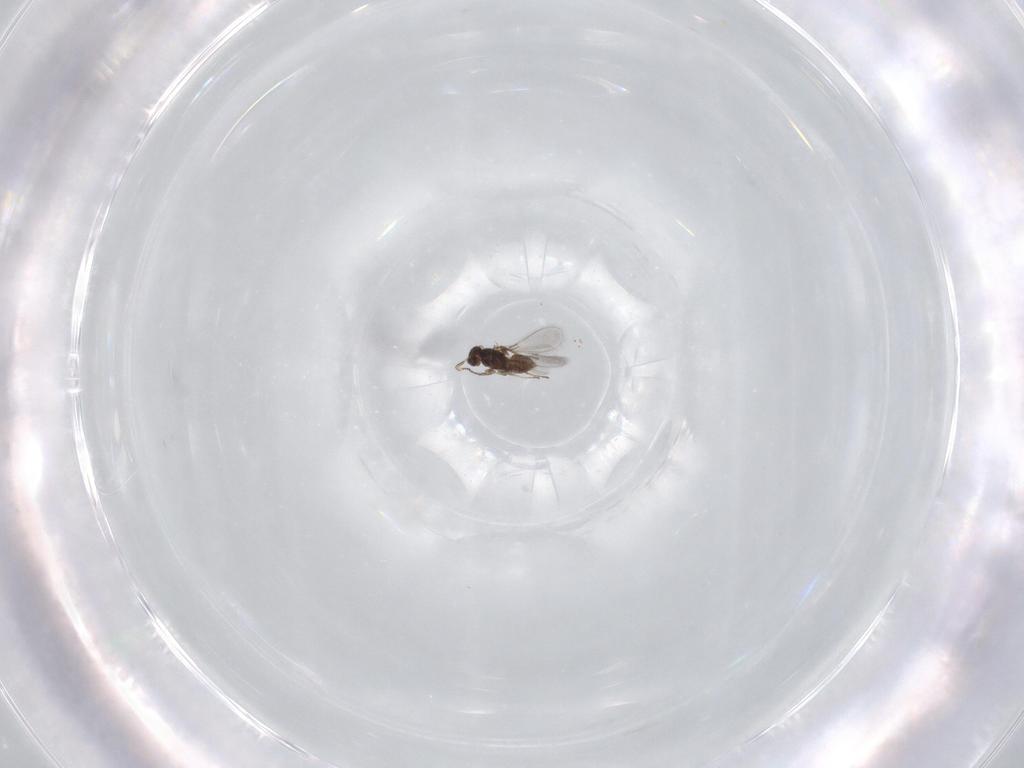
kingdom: Animalia
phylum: Arthropoda
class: Insecta
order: Hymenoptera
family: Mymaridae
